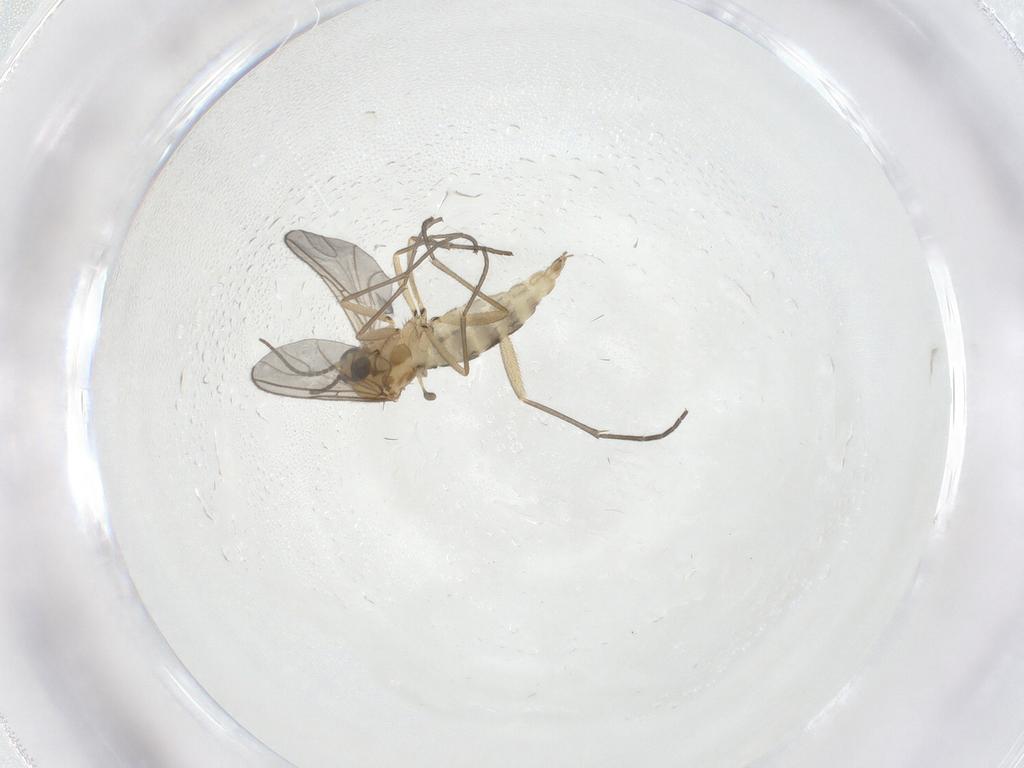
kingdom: Animalia
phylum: Arthropoda
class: Insecta
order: Diptera
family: Sciaridae
